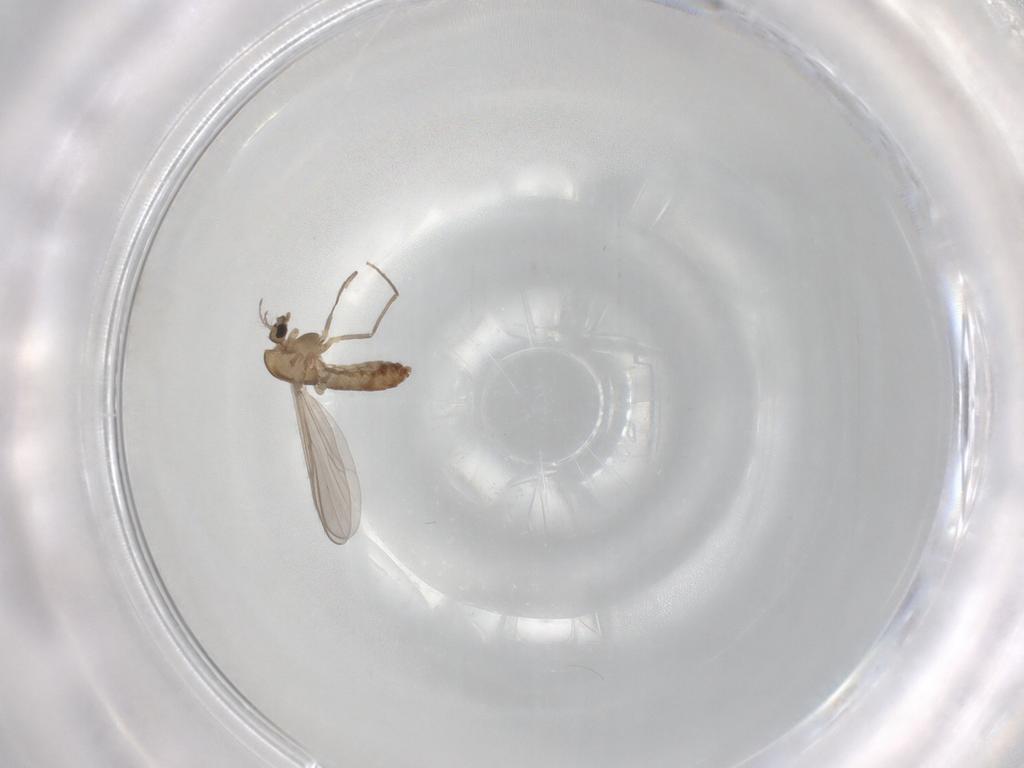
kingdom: Animalia
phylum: Arthropoda
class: Insecta
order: Diptera
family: Chironomidae
